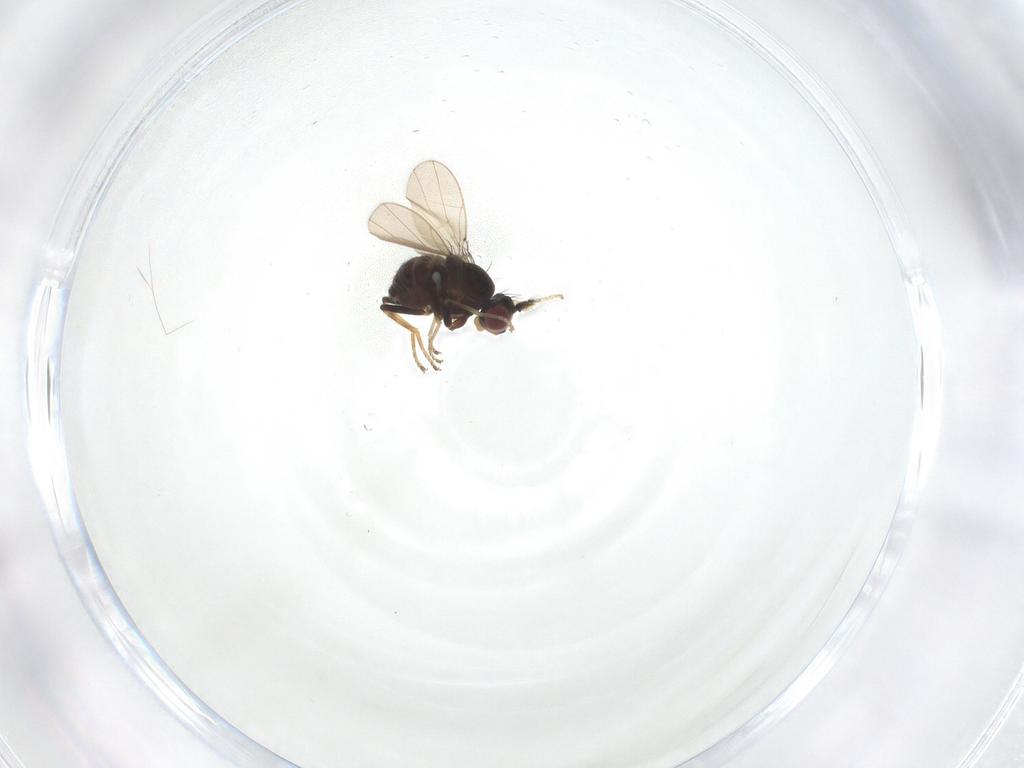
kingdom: Animalia
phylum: Arthropoda
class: Insecta
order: Diptera
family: Ephydridae
